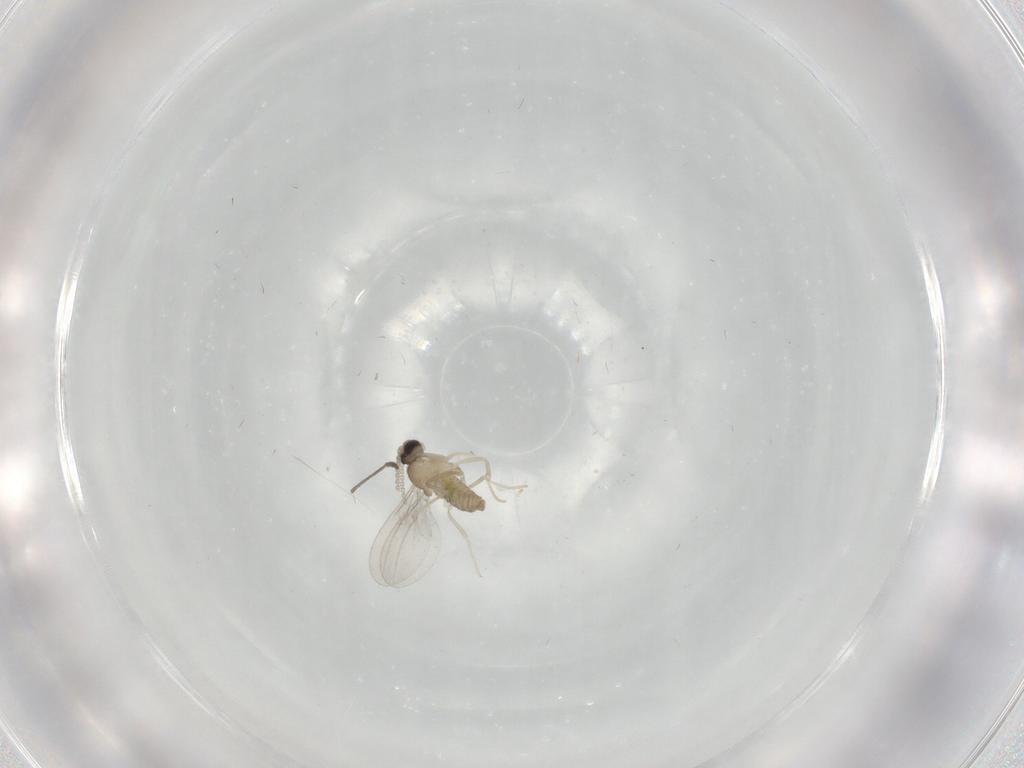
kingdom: Animalia
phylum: Arthropoda
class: Insecta
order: Diptera
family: Cecidomyiidae
